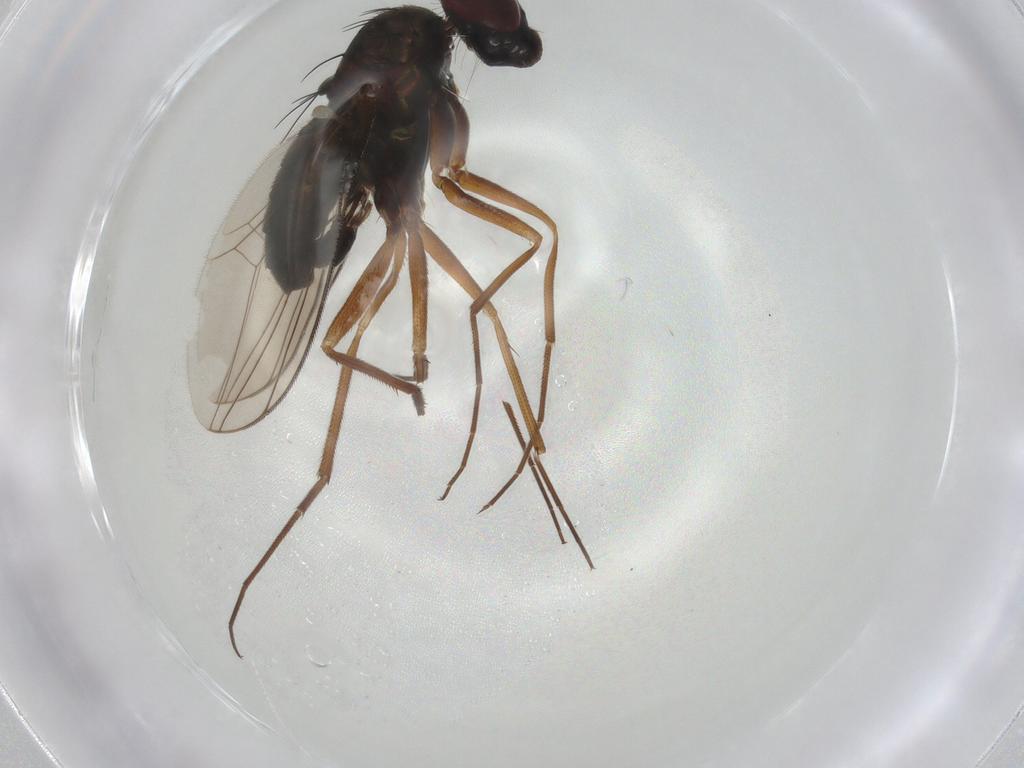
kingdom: Animalia
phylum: Arthropoda
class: Insecta
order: Diptera
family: Dolichopodidae
